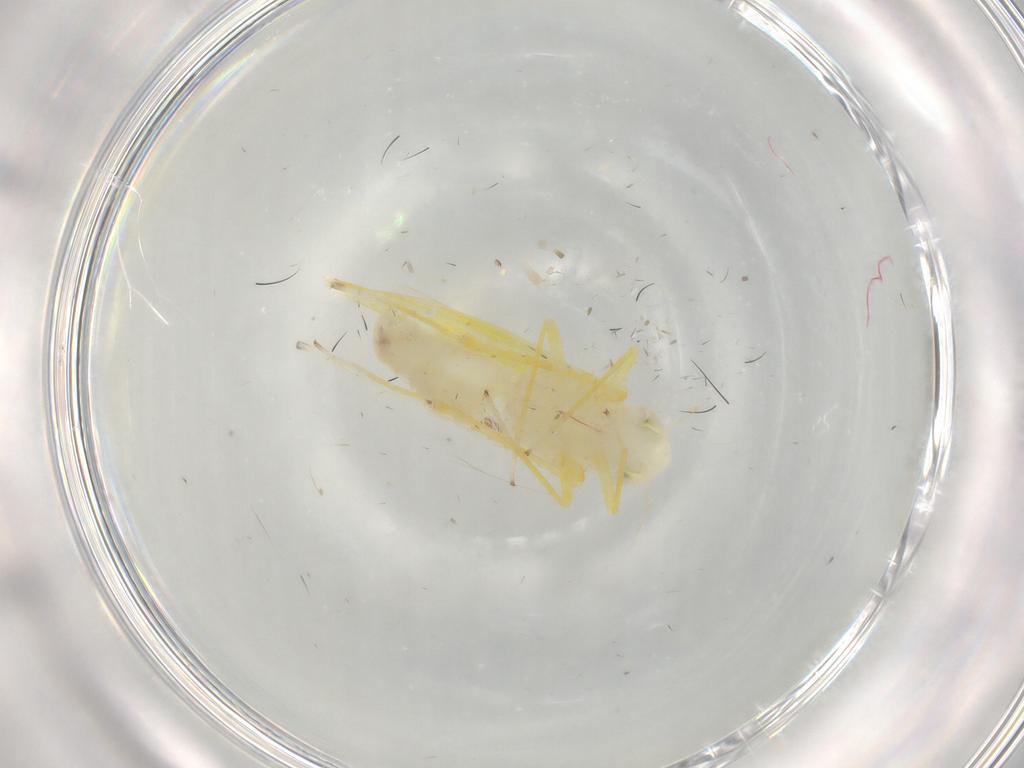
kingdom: Animalia
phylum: Arthropoda
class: Insecta
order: Hemiptera
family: Cicadellidae
